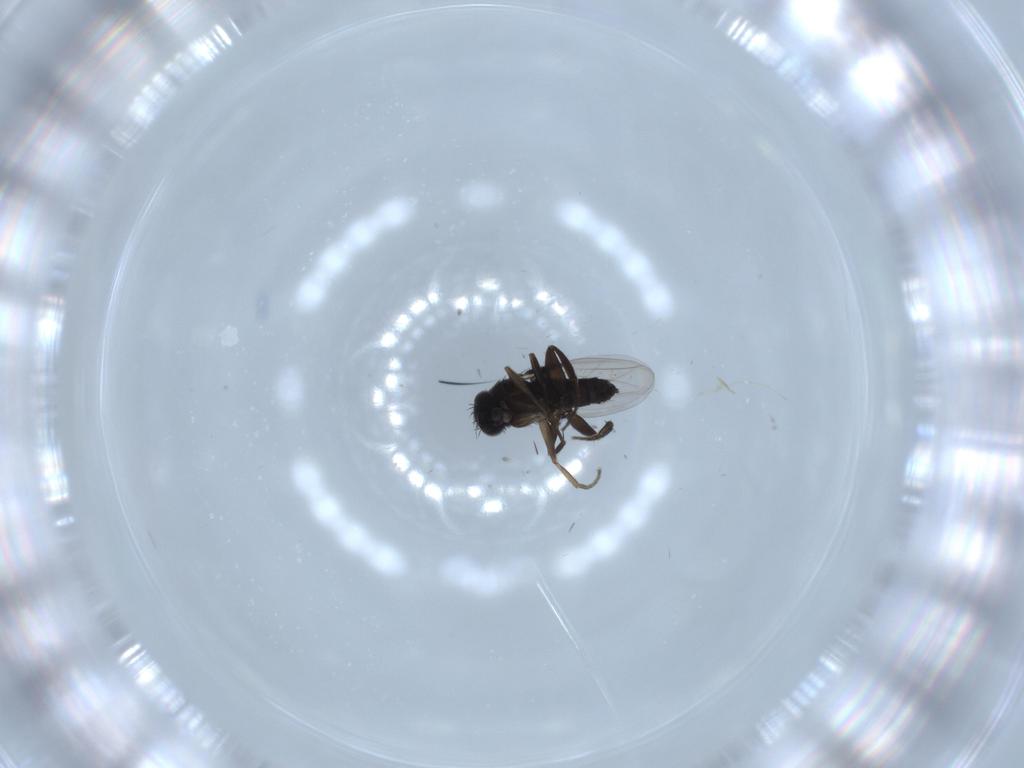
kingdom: Animalia
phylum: Arthropoda
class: Insecta
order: Diptera
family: Phoridae
